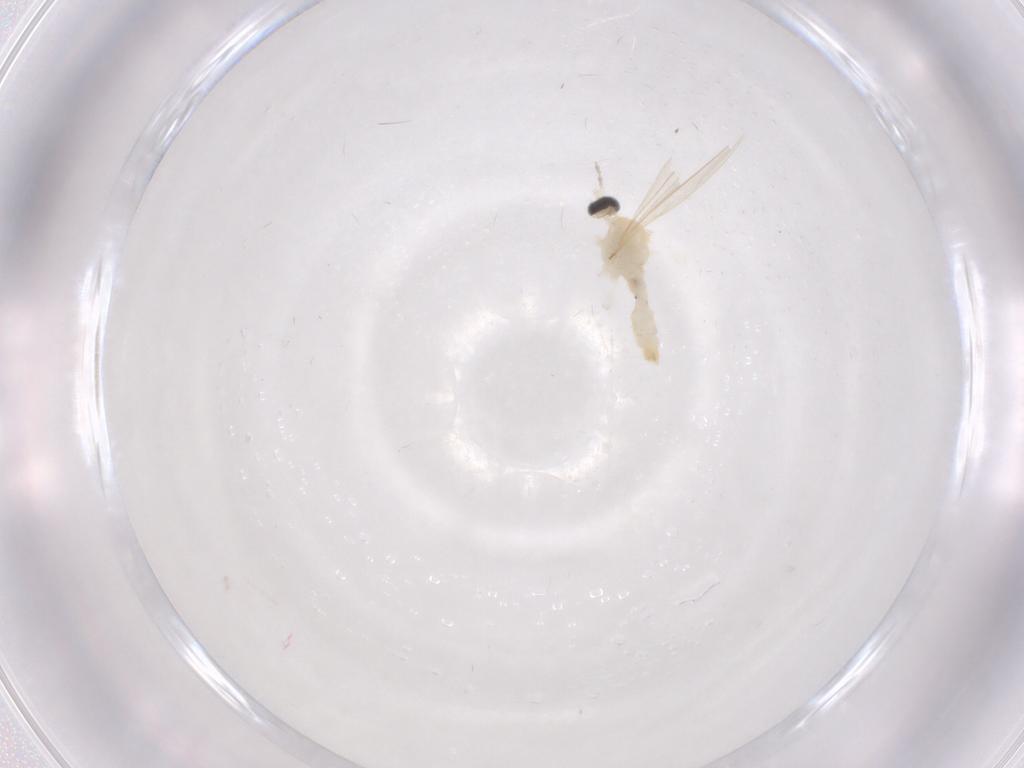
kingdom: Animalia
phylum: Arthropoda
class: Insecta
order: Diptera
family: Cecidomyiidae
